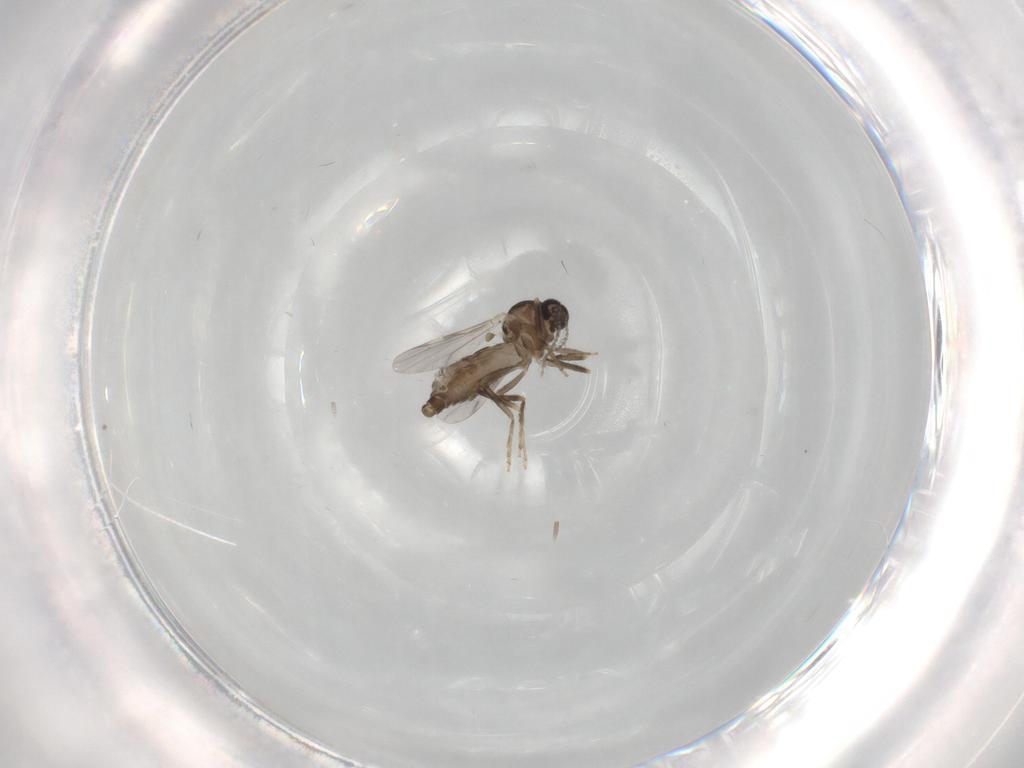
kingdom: Animalia
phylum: Arthropoda
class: Insecta
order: Diptera
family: Ceratopogonidae
